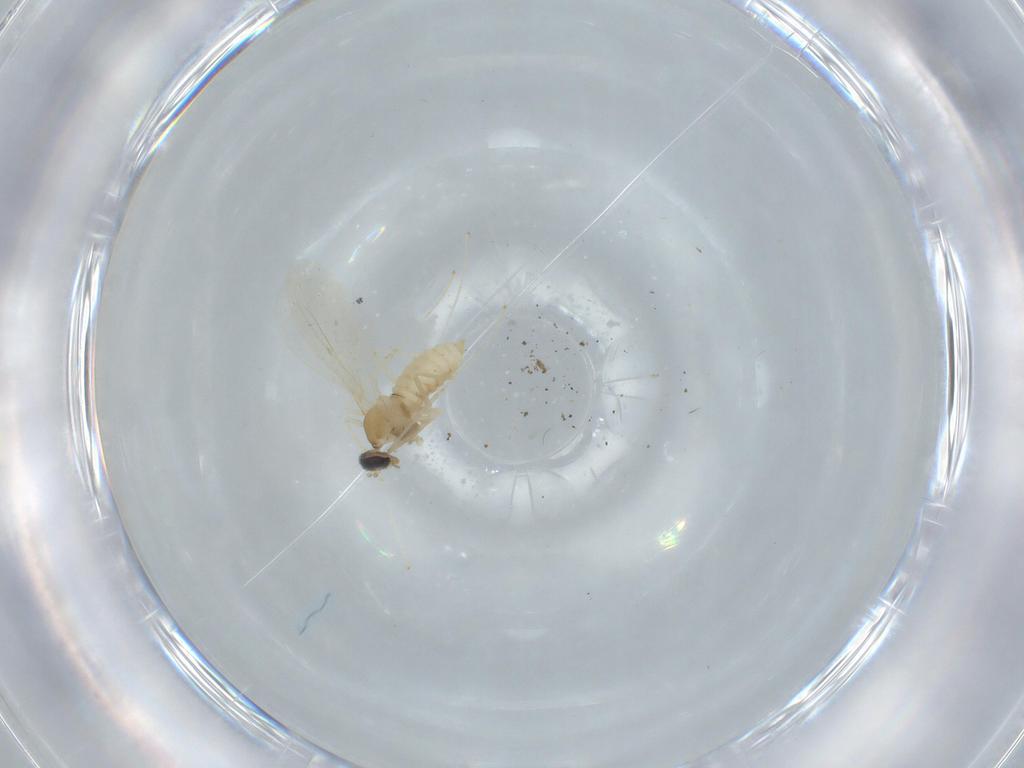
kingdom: Animalia
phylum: Arthropoda
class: Insecta
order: Diptera
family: Cecidomyiidae
